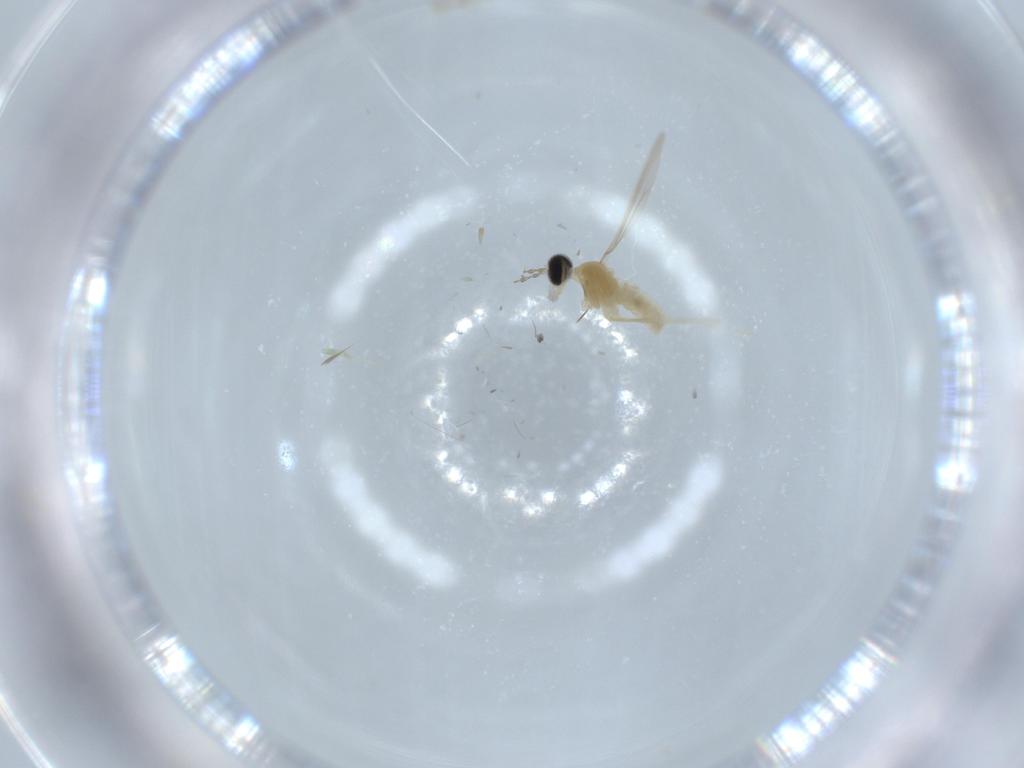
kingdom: Animalia
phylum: Arthropoda
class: Insecta
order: Diptera
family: Cecidomyiidae
